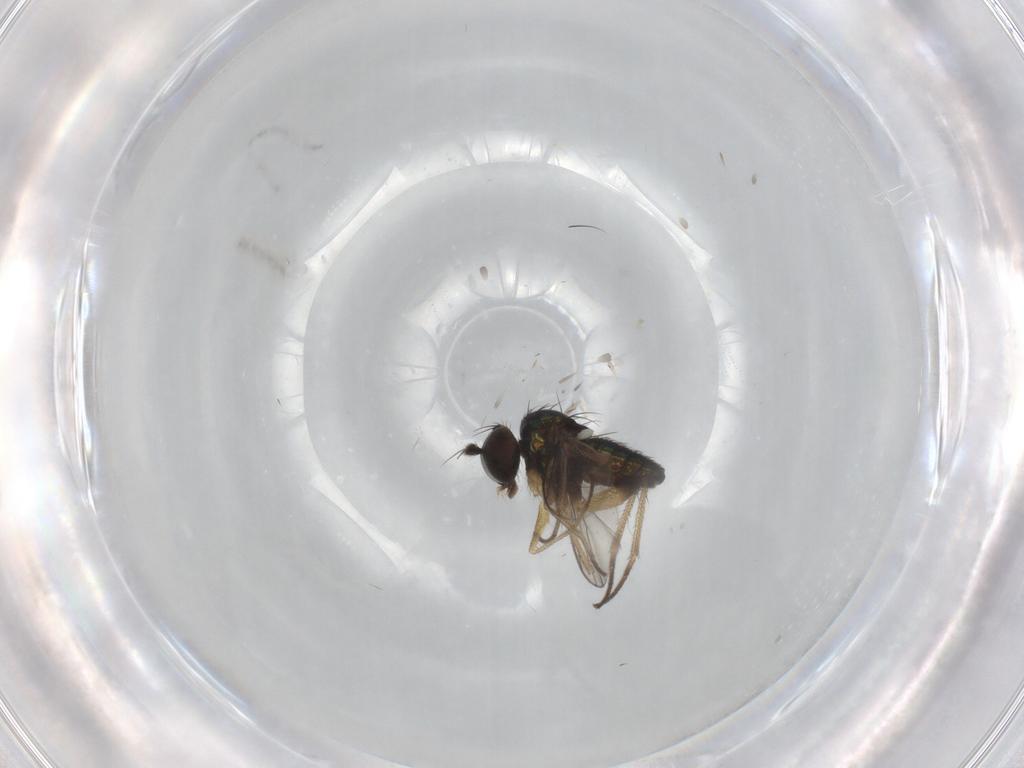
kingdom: Animalia
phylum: Arthropoda
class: Insecta
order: Diptera
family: Dolichopodidae
